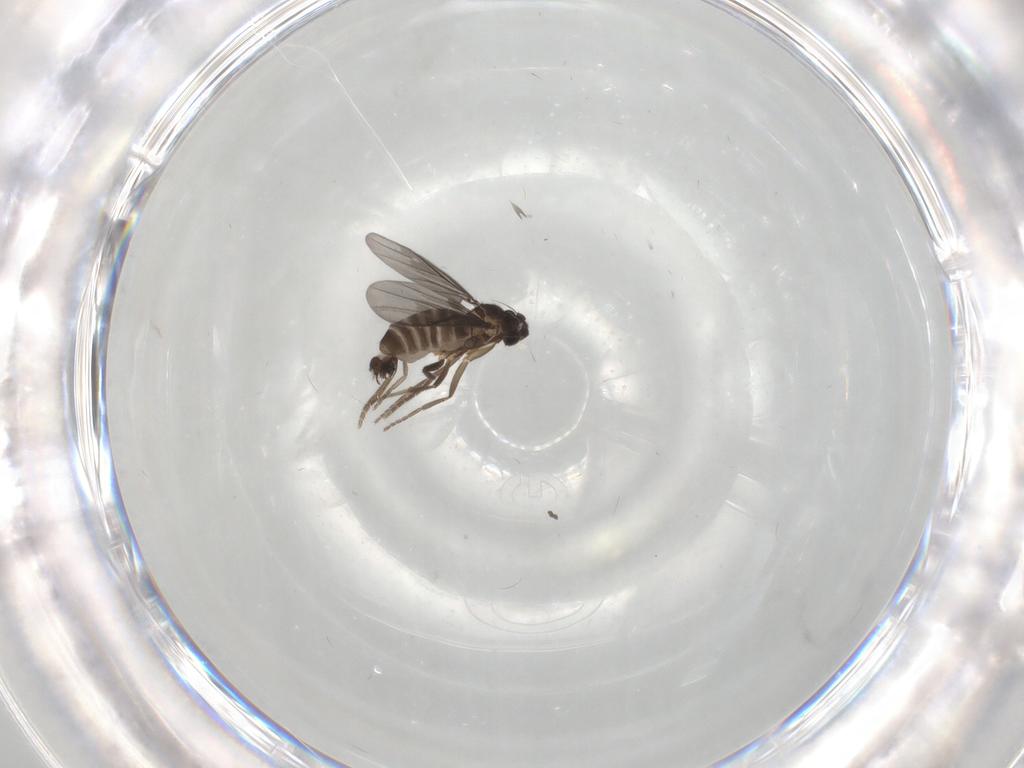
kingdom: Animalia
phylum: Arthropoda
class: Insecta
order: Diptera
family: Phoridae
